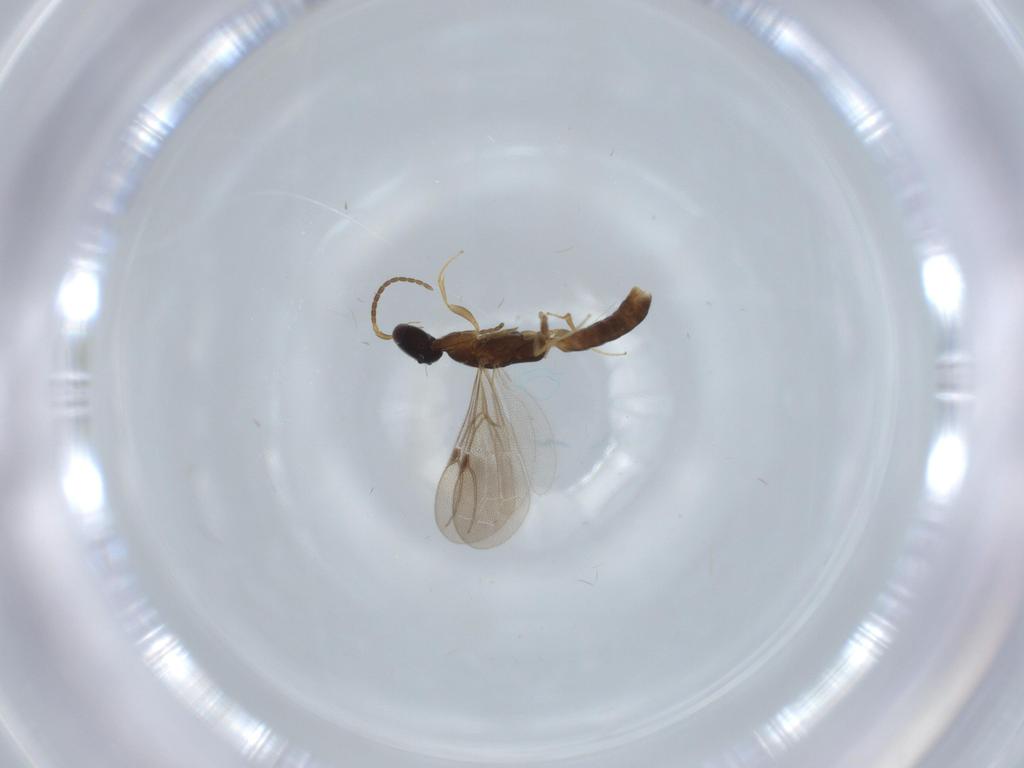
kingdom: Animalia
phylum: Arthropoda
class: Insecta
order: Hymenoptera
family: Bethylidae
